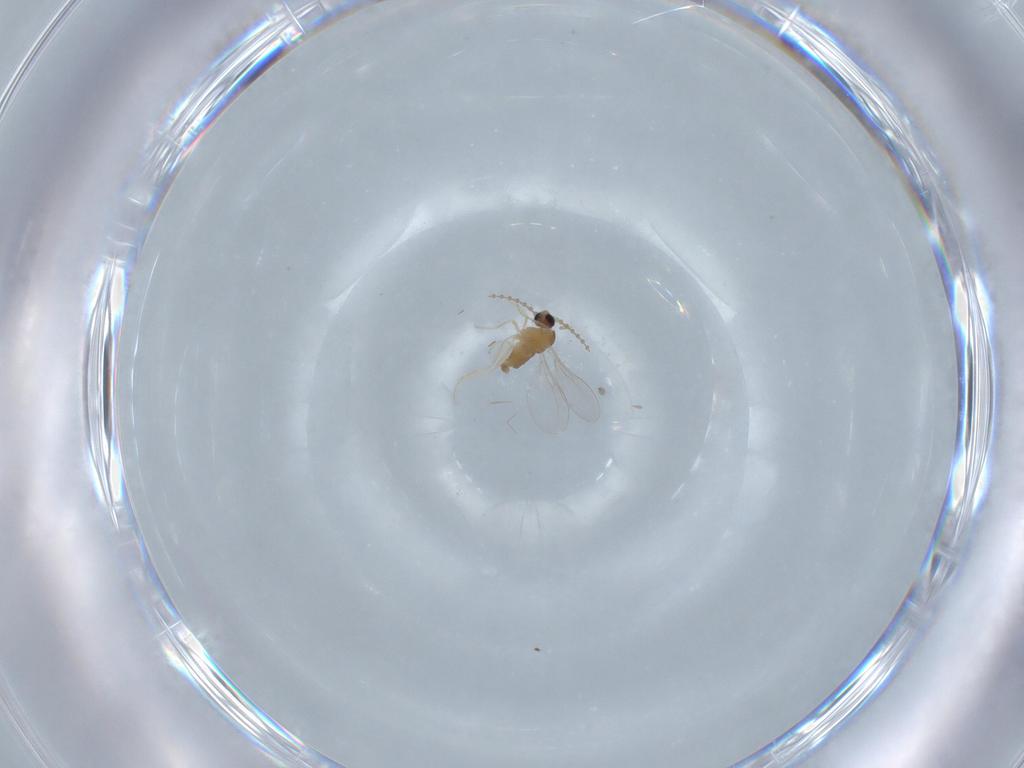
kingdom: Animalia
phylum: Arthropoda
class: Insecta
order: Diptera
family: Cecidomyiidae
